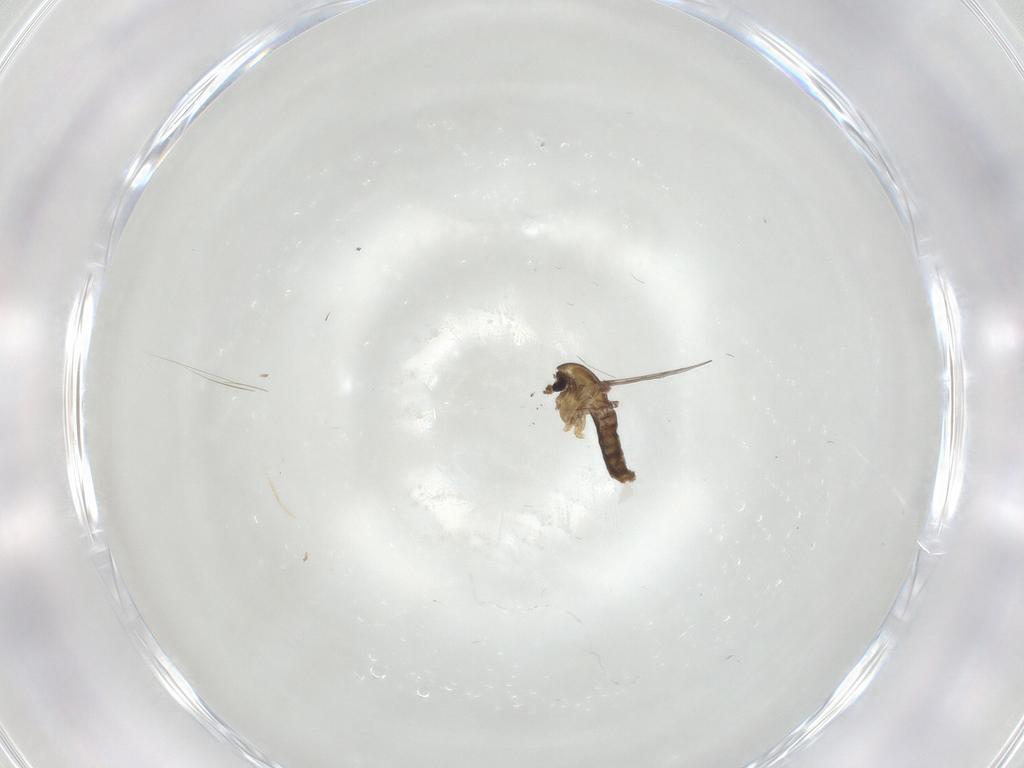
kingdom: Animalia
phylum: Arthropoda
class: Insecta
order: Diptera
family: Chironomidae
